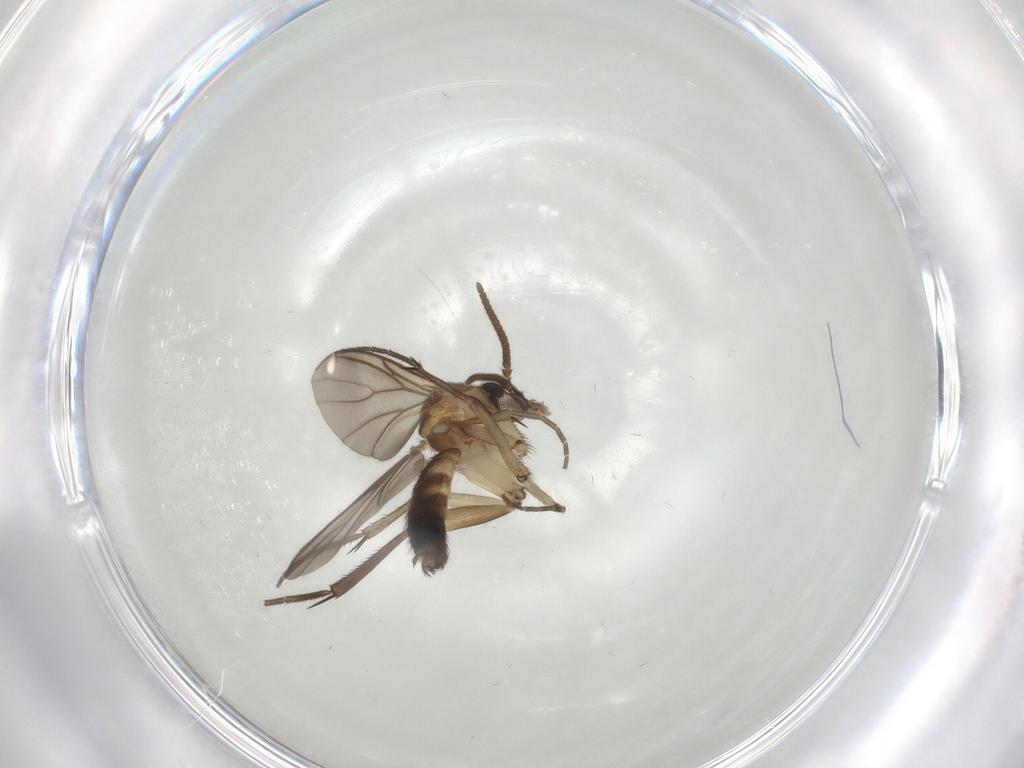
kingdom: Animalia
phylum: Arthropoda
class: Insecta
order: Diptera
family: Mycetophilidae
